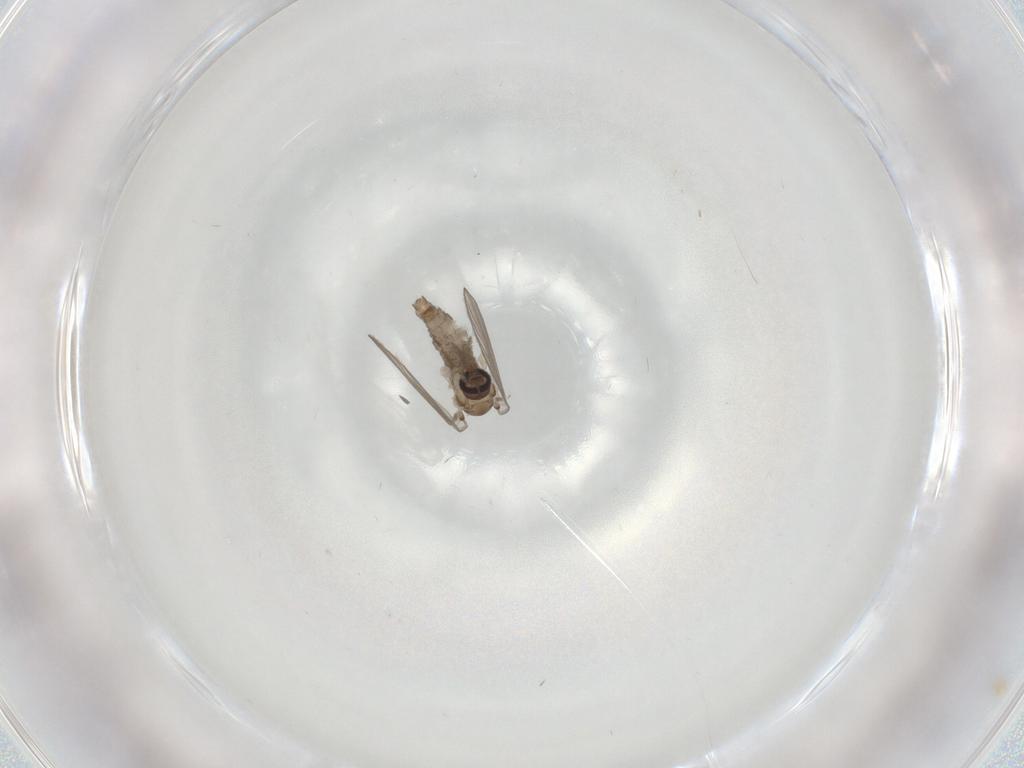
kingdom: Animalia
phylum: Arthropoda
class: Insecta
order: Diptera
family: Psychodidae
